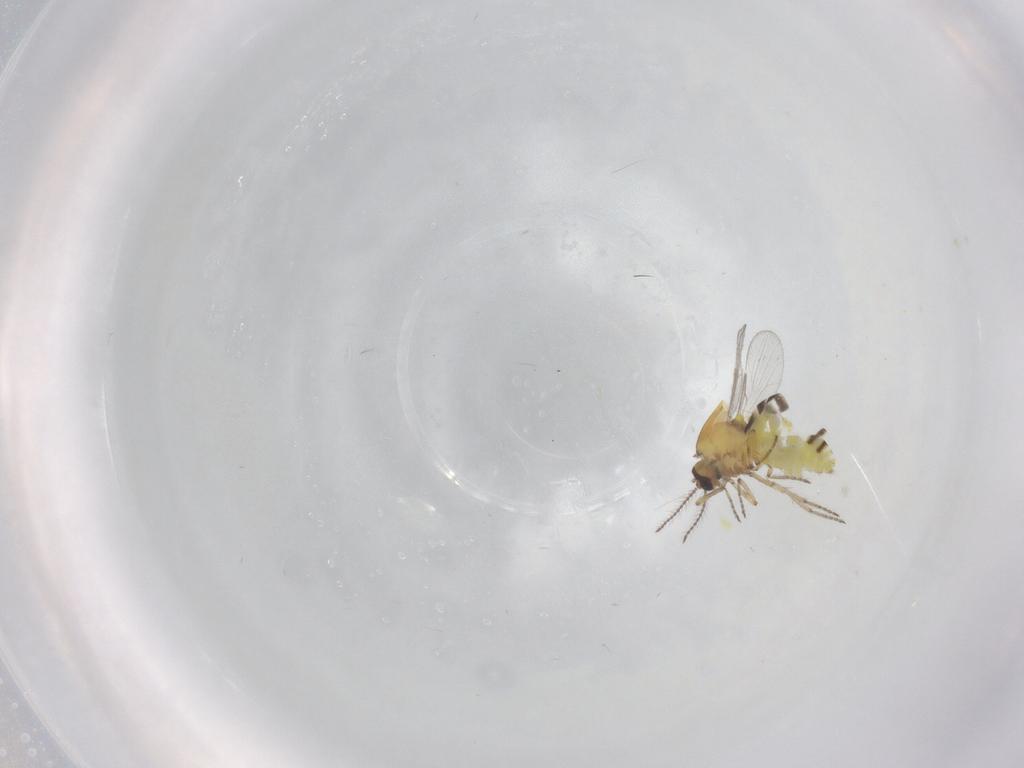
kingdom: Animalia
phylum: Arthropoda
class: Insecta
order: Diptera
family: Ceratopogonidae
